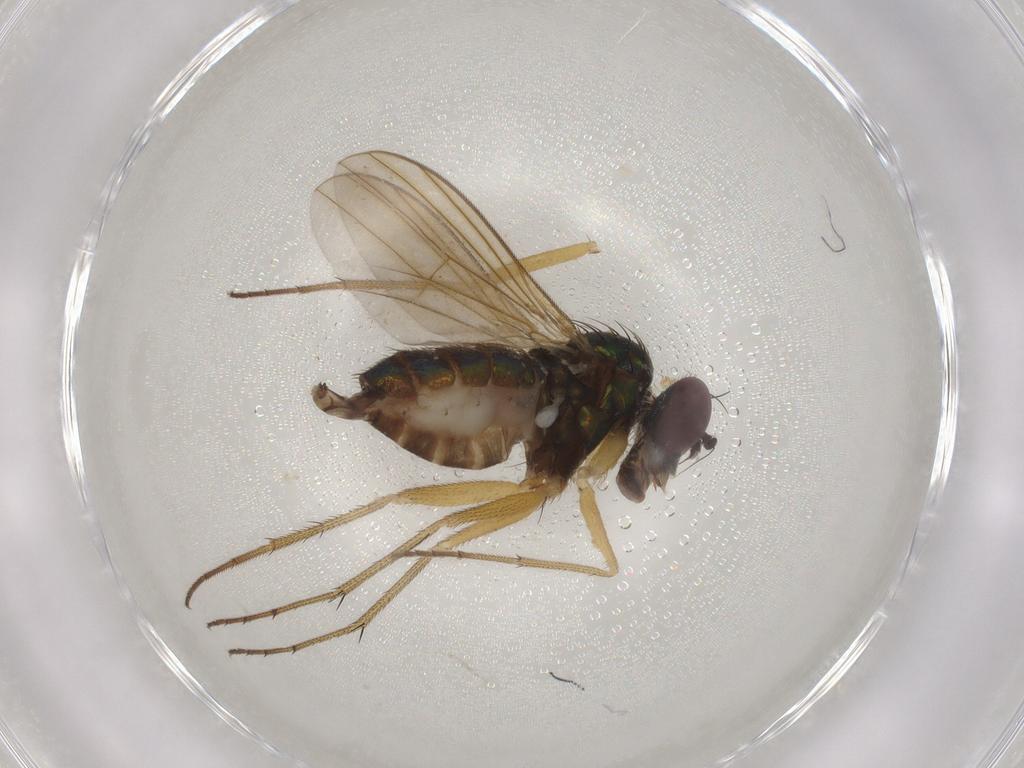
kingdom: Animalia
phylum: Arthropoda
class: Insecta
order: Diptera
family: Dolichopodidae
